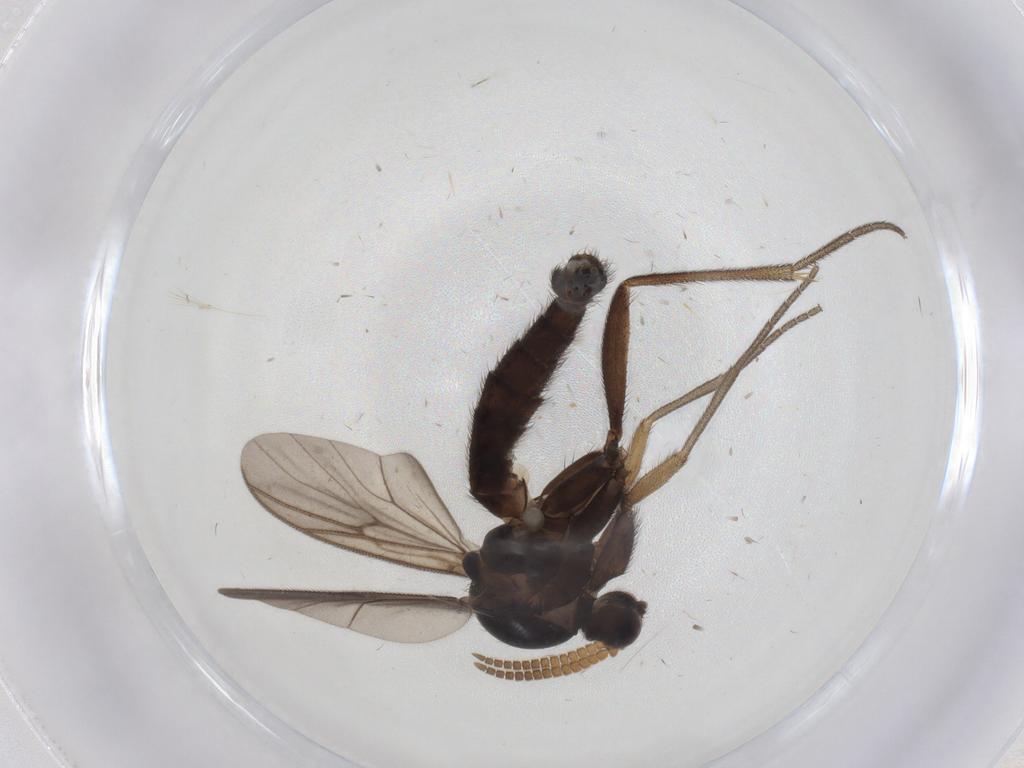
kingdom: Animalia
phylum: Arthropoda
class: Insecta
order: Diptera
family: Mycetophilidae
